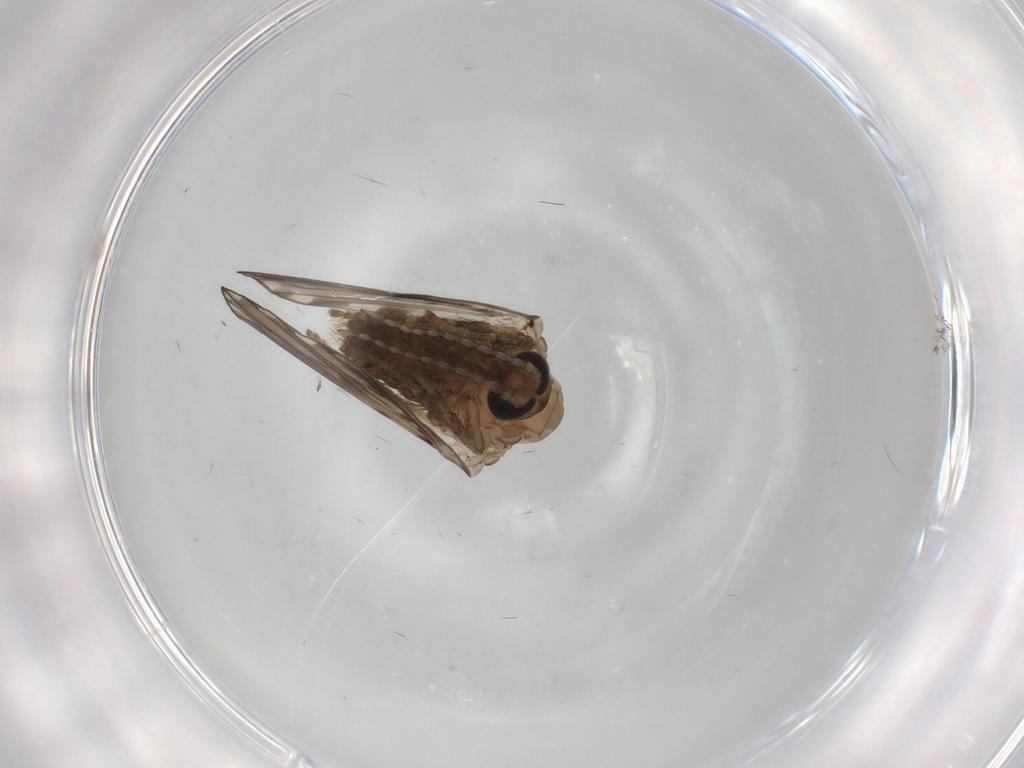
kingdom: Animalia
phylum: Arthropoda
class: Insecta
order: Diptera
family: Psychodidae
